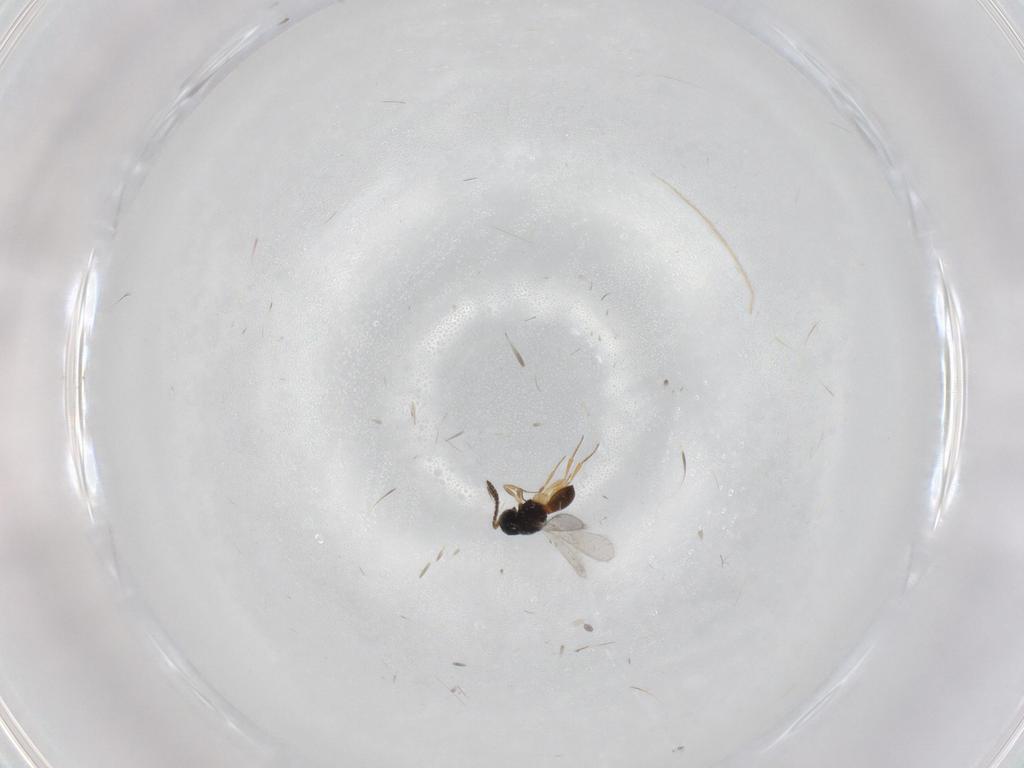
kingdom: Animalia
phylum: Arthropoda
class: Insecta
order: Hymenoptera
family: Scelionidae
